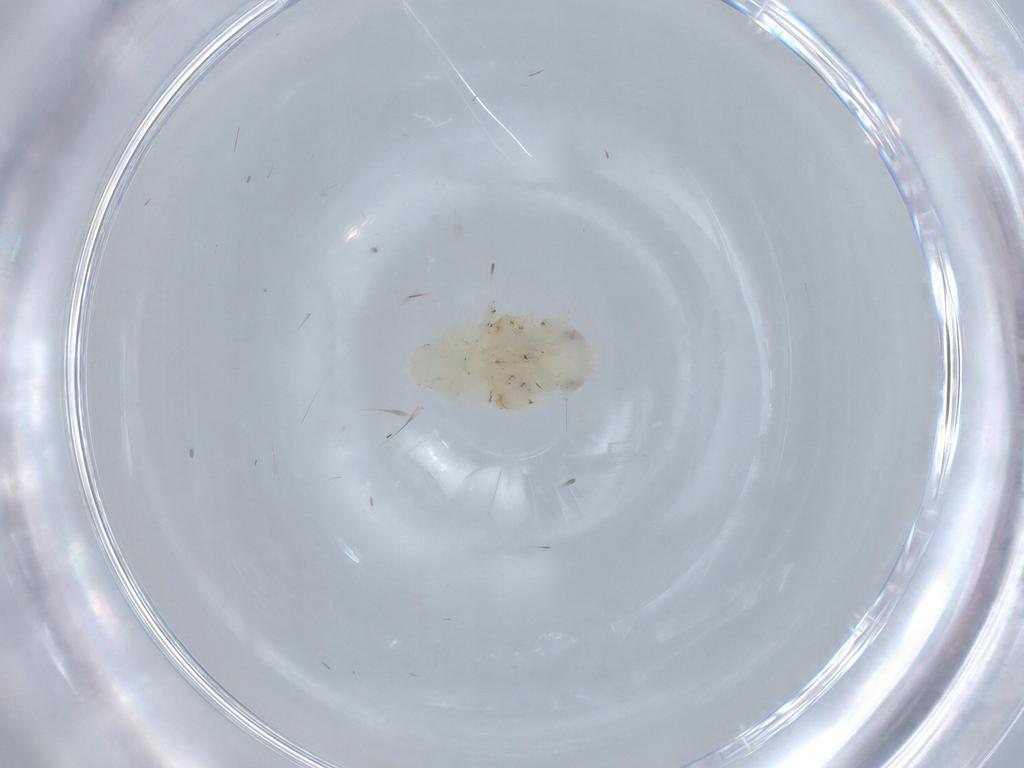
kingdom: Animalia
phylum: Arthropoda
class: Insecta
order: Hemiptera
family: Nogodinidae
